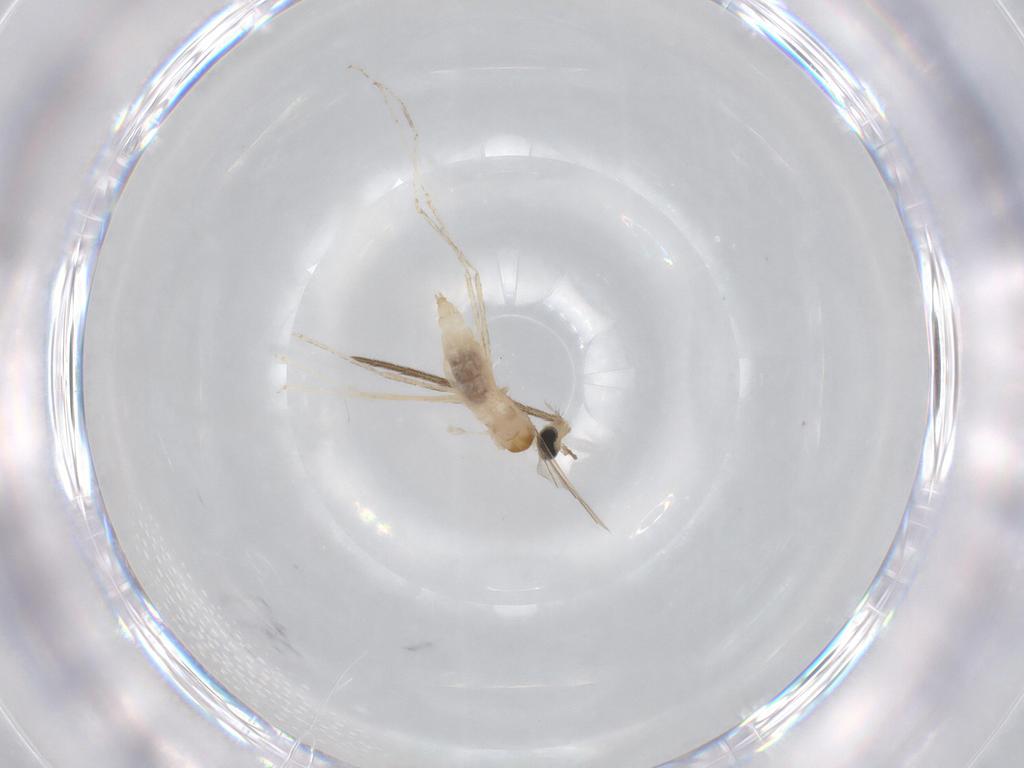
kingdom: Animalia
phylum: Arthropoda
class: Insecta
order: Diptera
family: Cecidomyiidae
